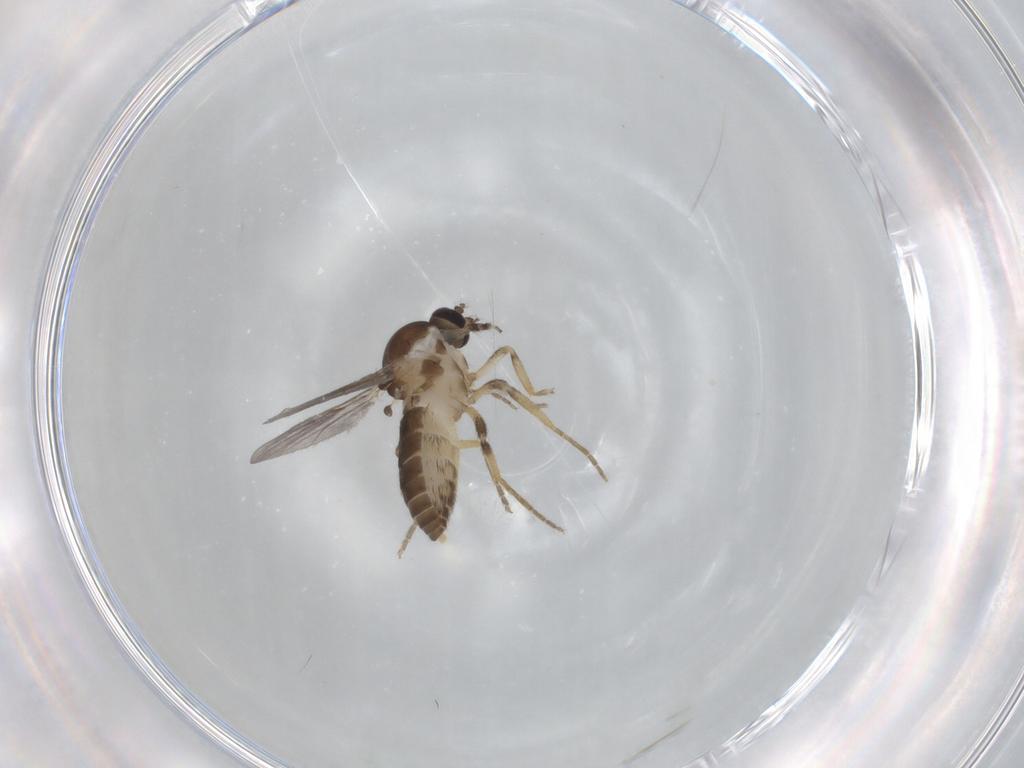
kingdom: Animalia
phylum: Arthropoda
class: Insecta
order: Diptera
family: Ceratopogonidae
